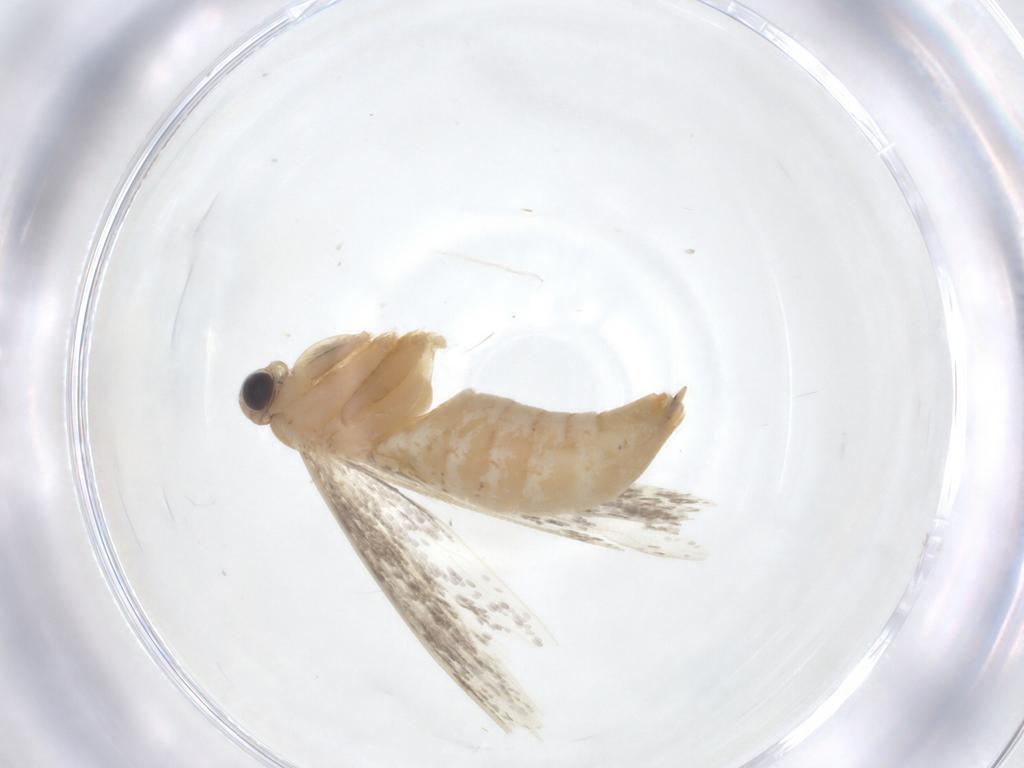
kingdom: Animalia
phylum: Arthropoda
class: Insecta
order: Lepidoptera
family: Tineidae
